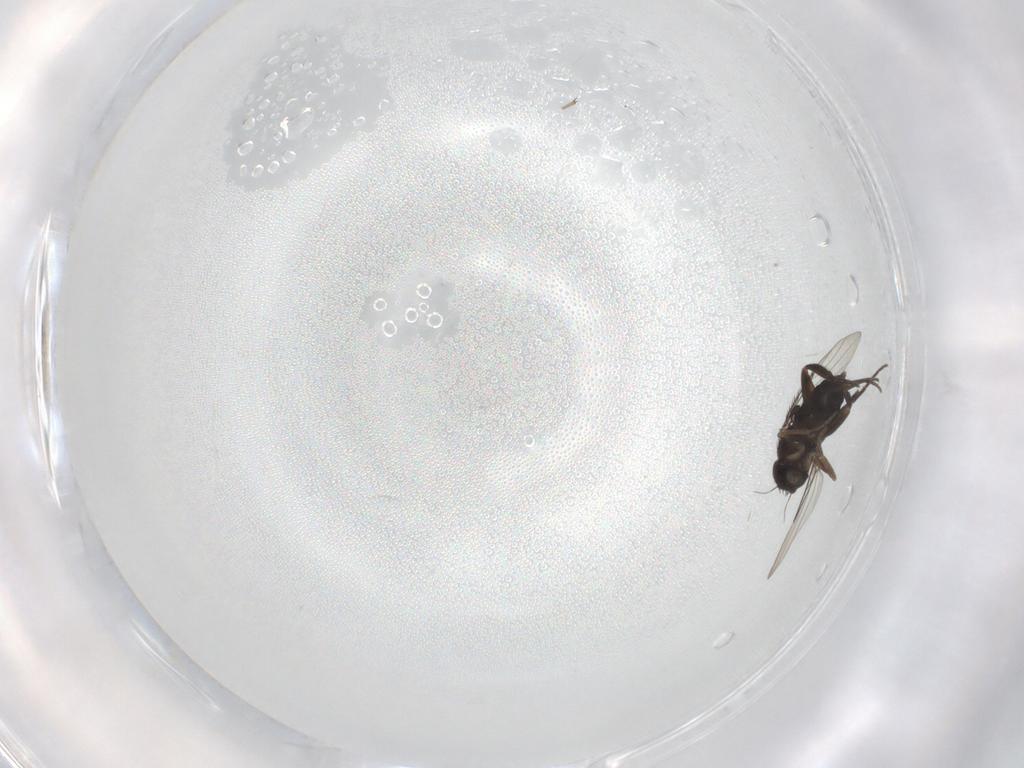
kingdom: Animalia
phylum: Arthropoda
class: Insecta
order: Diptera
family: Chironomidae
